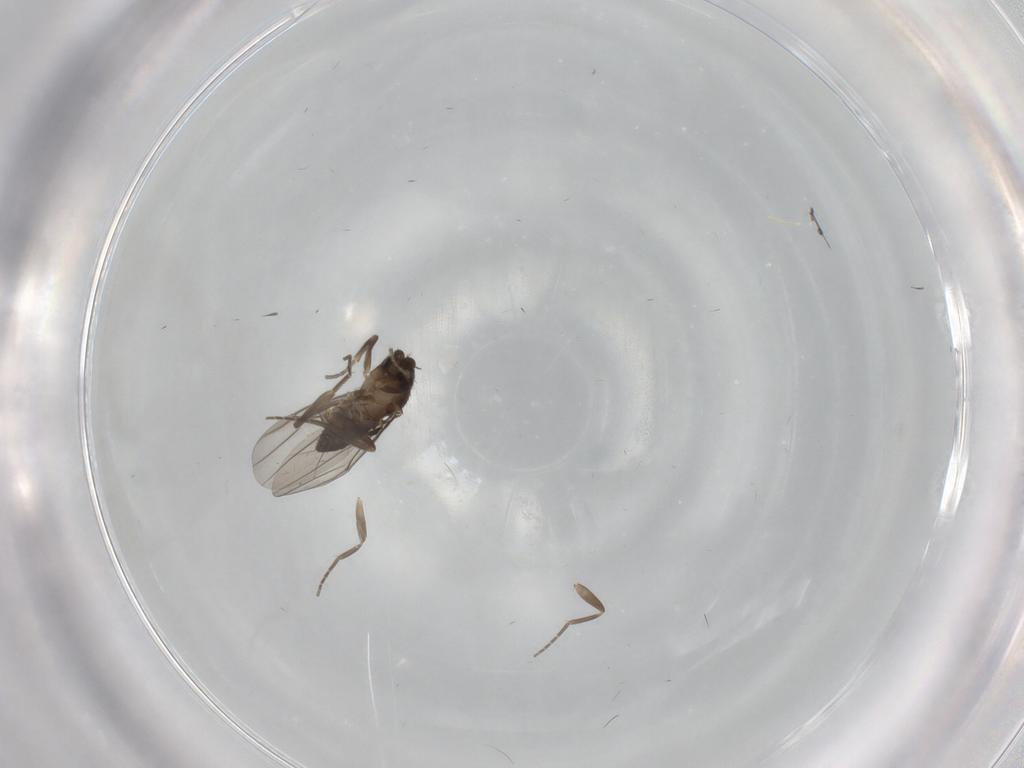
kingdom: Animalia
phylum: Arthropoda
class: Insecta
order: Diptera
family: Phoridae
